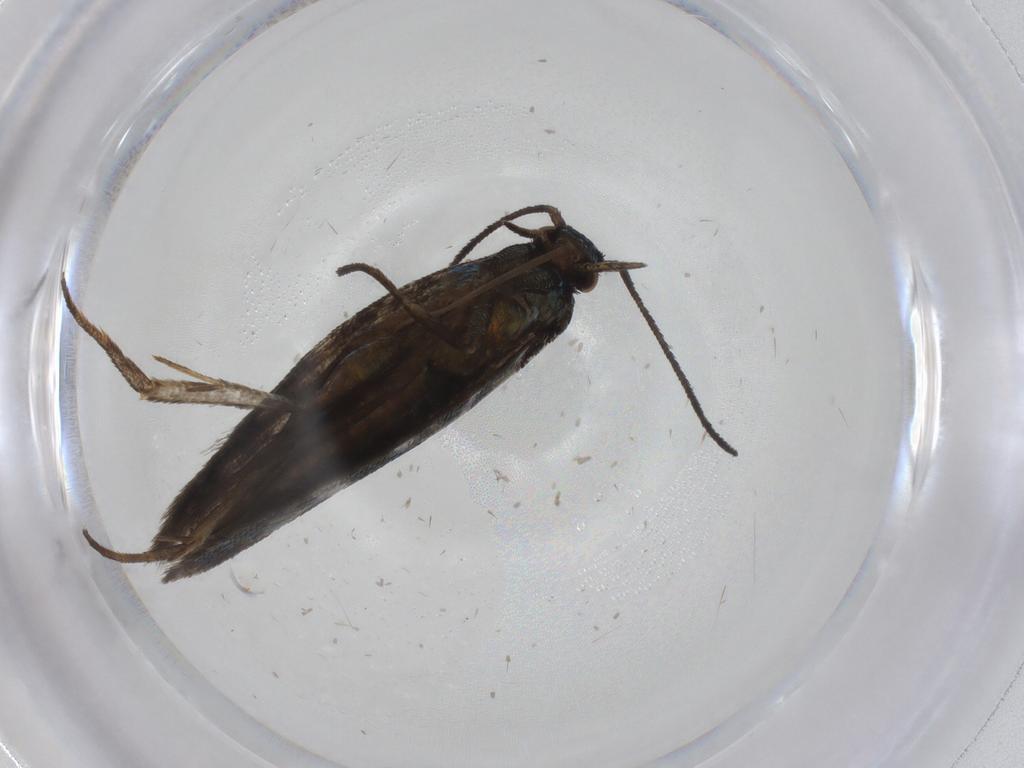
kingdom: Animalia
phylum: Arthropoda
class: Insecta
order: Lepidoptera
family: Argyresthiidae
